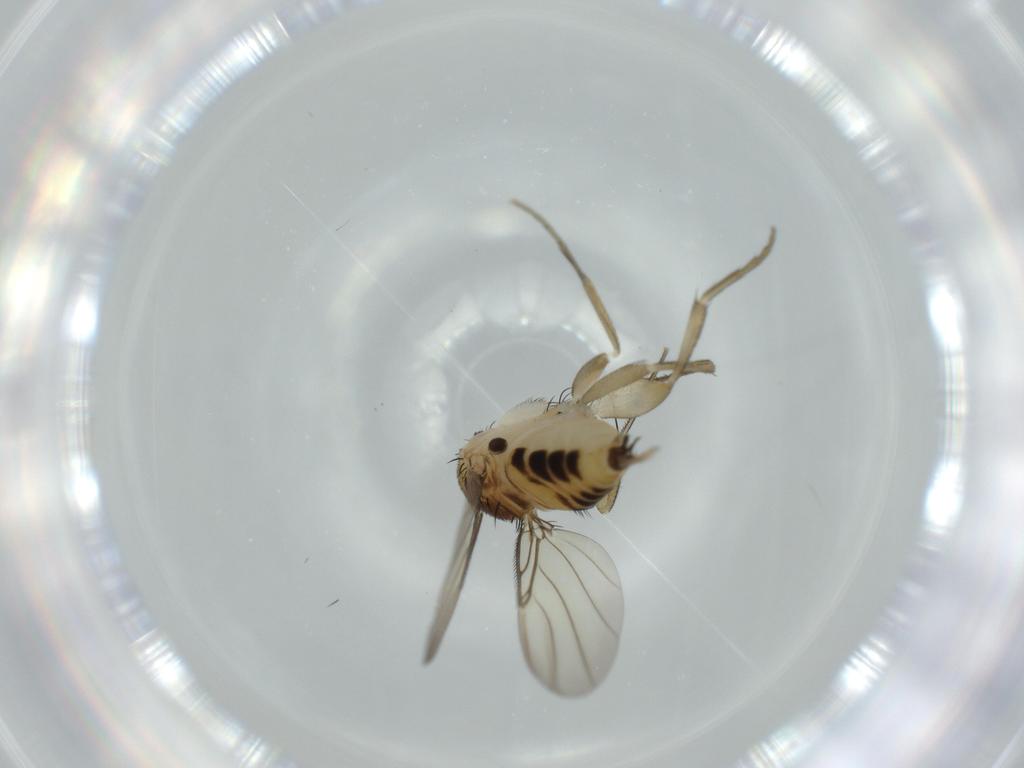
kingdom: Animalia
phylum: Arthropoda
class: Insecta
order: Diptera
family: Phoridae
